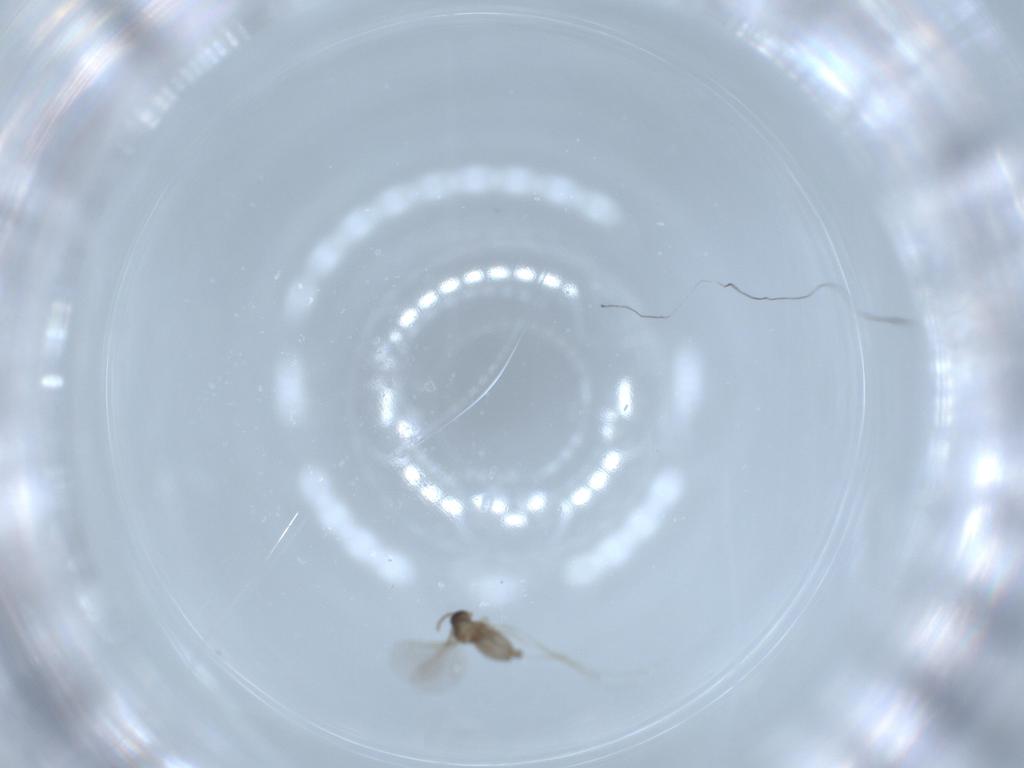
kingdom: Animalia
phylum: Arthropoda
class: Insecta
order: Diptera
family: Cecidomyiidae
